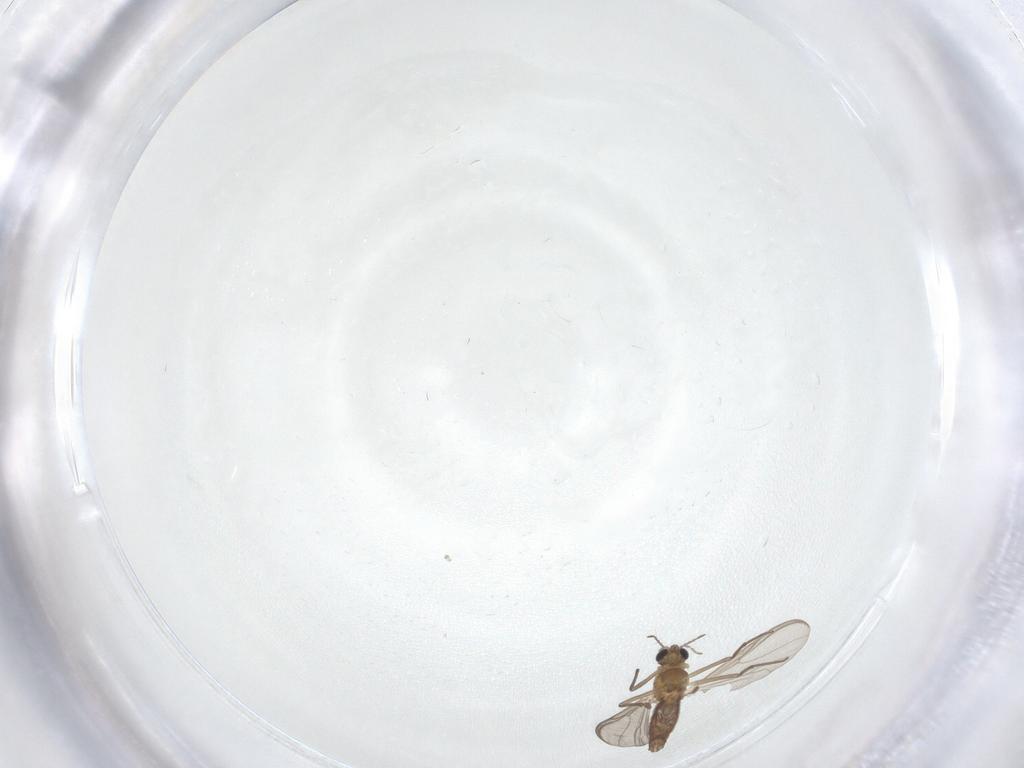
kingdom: Animalia
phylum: Arthropoda
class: Insecta
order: Diptera
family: Chironomidae
